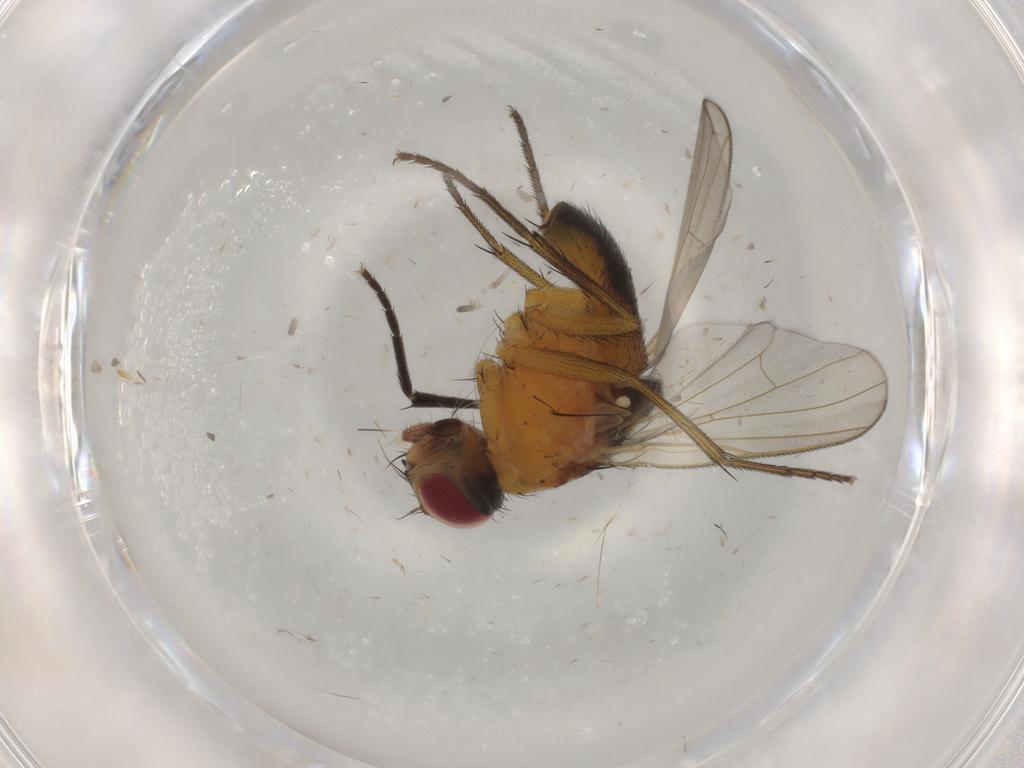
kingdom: Animalia
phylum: Arthropoda
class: Insecta
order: Diptera
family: Muscidae
